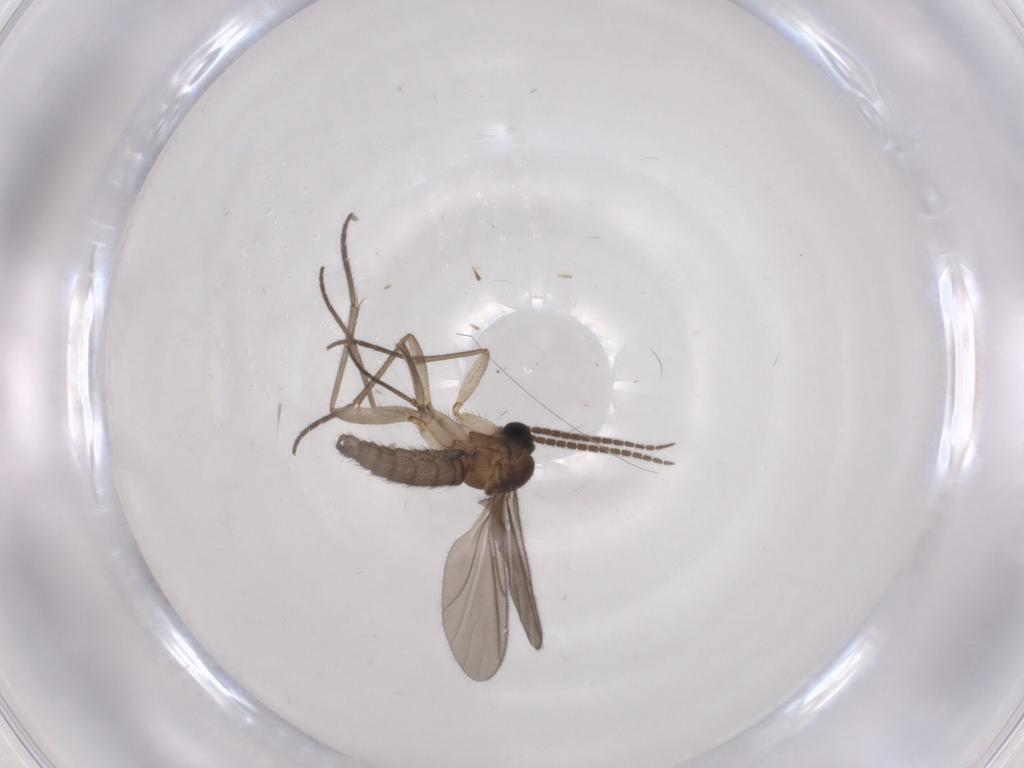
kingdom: Animalia
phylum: Arthropoda
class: Insecta
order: Diptera
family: Sciaridae
